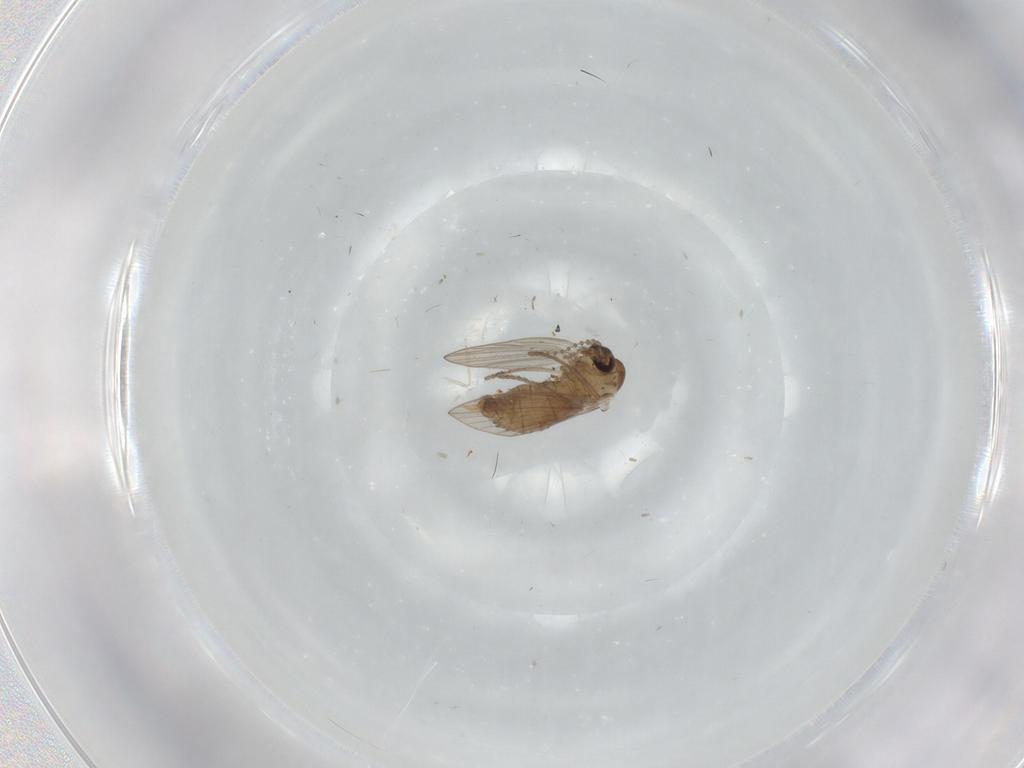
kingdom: Animalia
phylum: Arthropoda
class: Insecta
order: Diptera
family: Psychodidae
